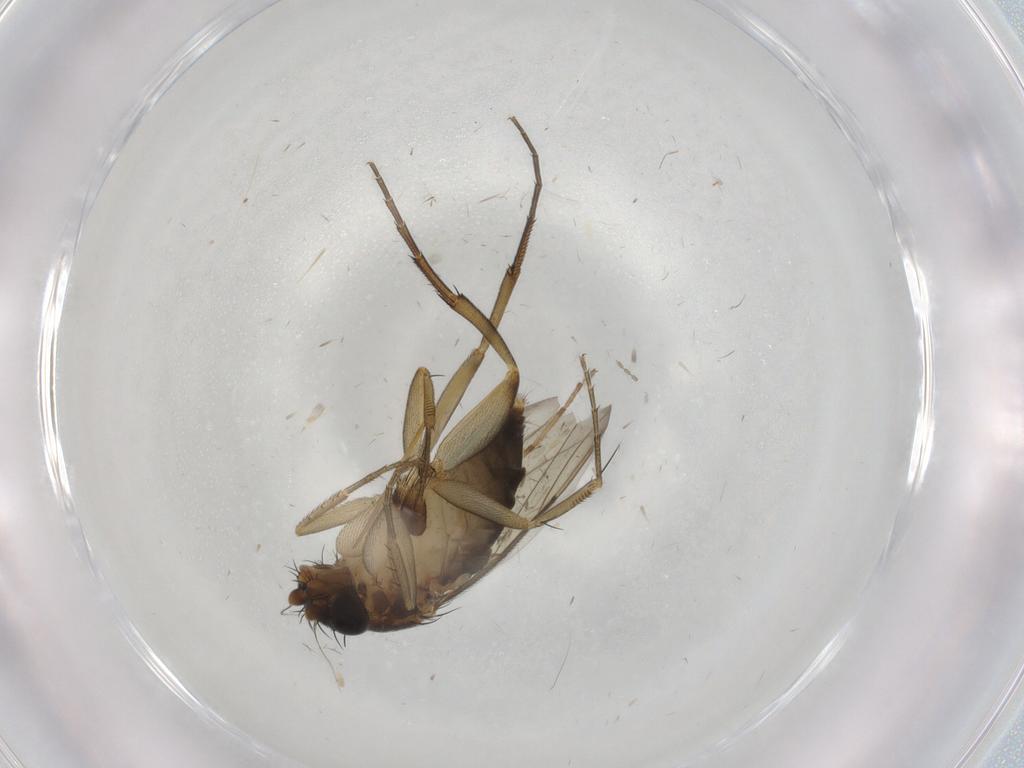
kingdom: Animalia
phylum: Arthropoda
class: Insecta
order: Diptera
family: Phoridae
